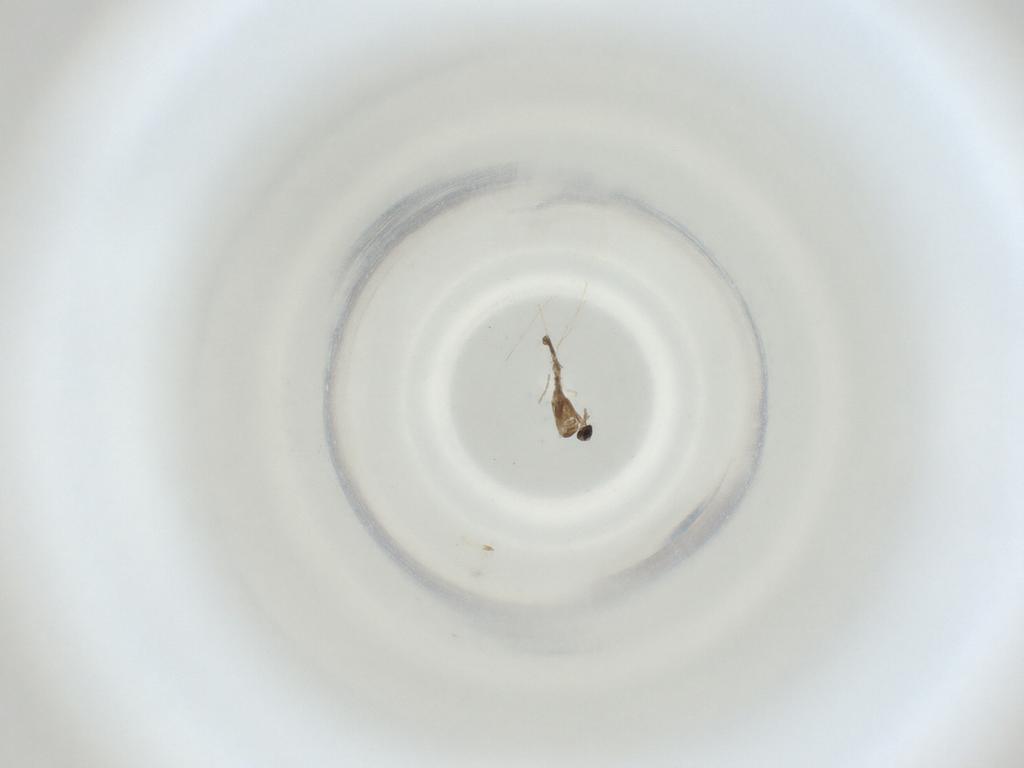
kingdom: Animalia
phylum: Arthropoda
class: Insecta
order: Diptera
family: Cecidomyiidae
